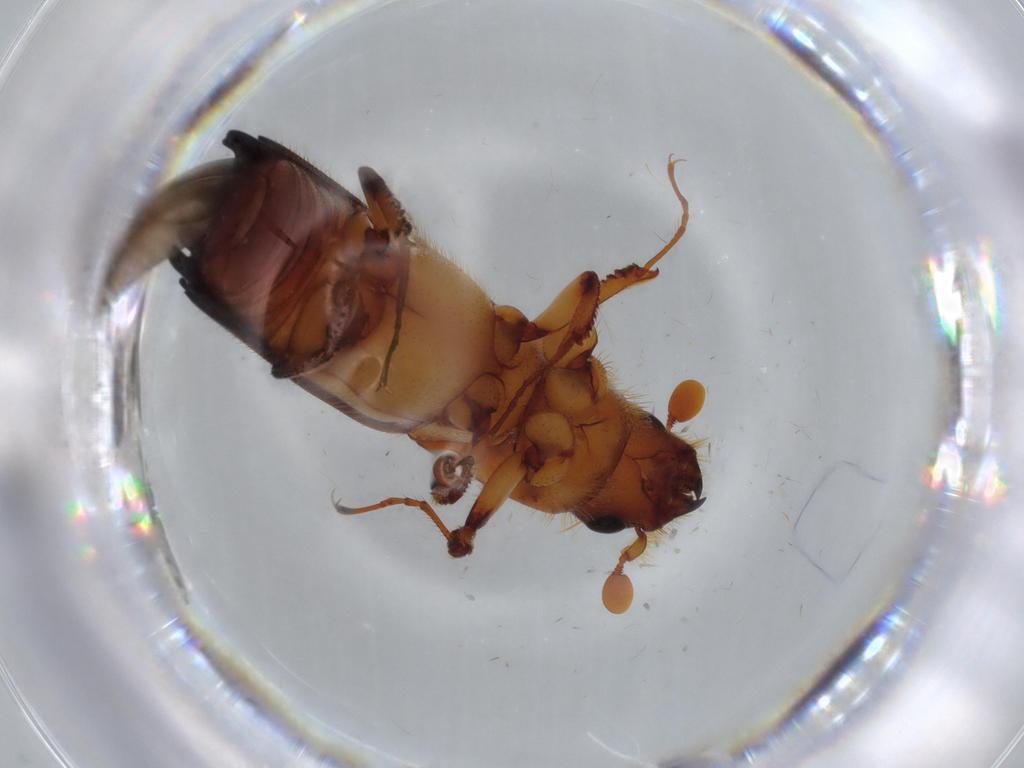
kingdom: Animalia
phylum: Arthropoda
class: Insecta
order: Coleoptera
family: Curculionidae
